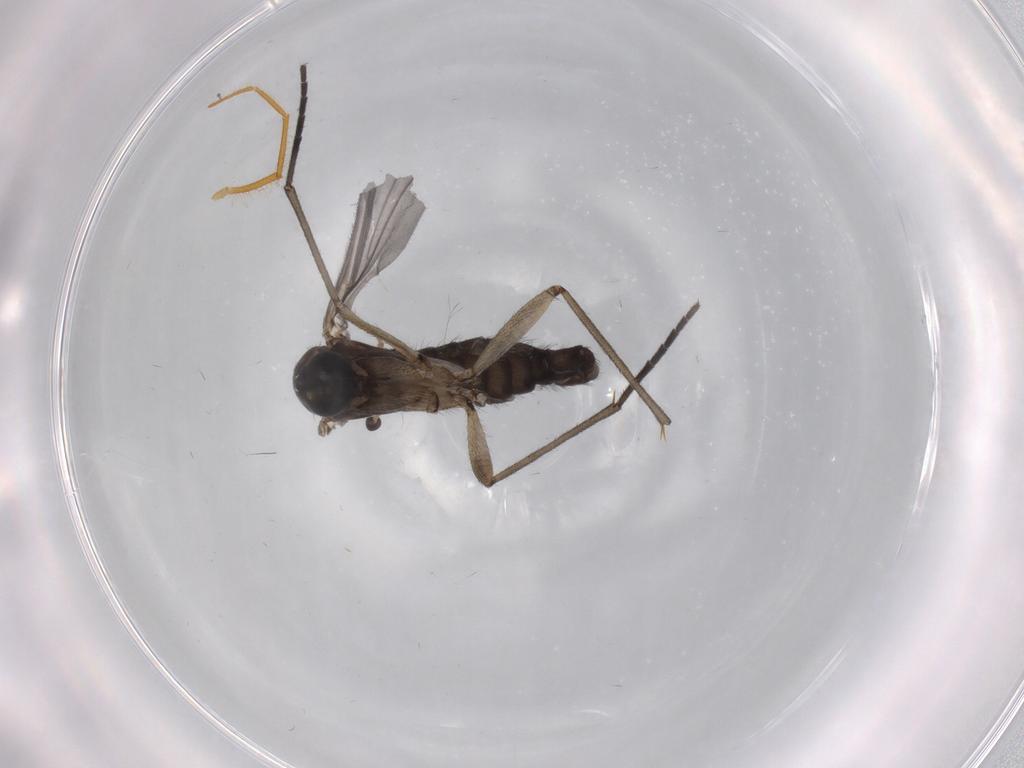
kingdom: Animalia
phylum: Arthropoda
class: Insecta
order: Diptera
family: Sciaridae
